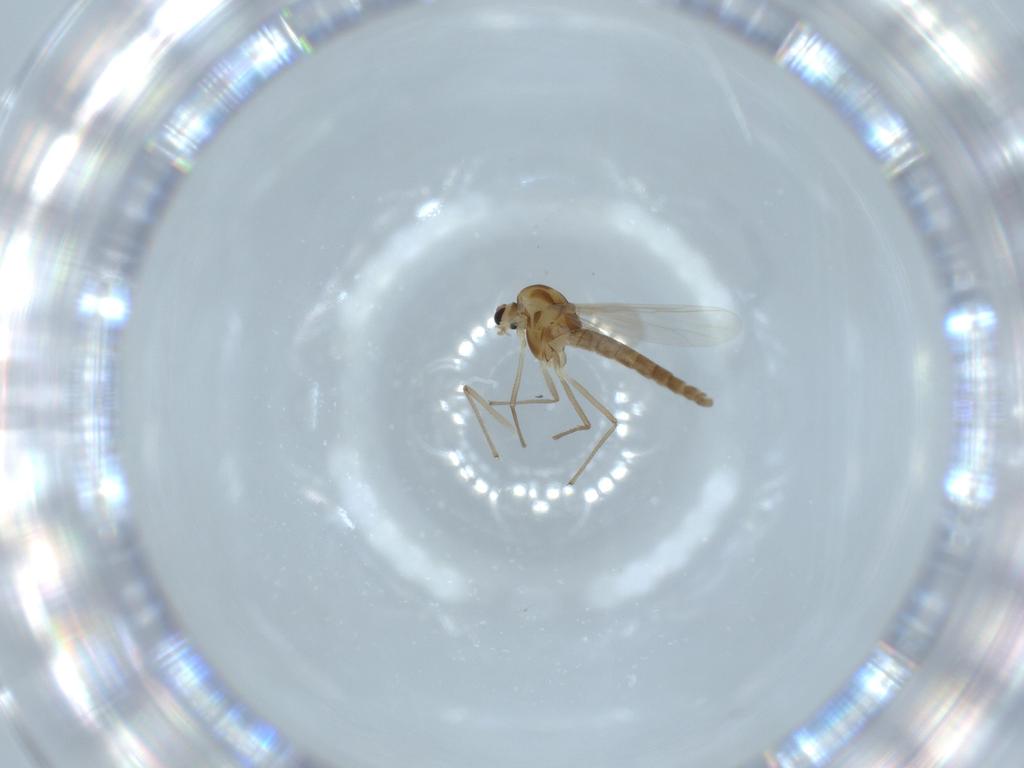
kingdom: Animalia
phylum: Arthropoda
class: Insecta
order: Diptera
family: Chironomidae
